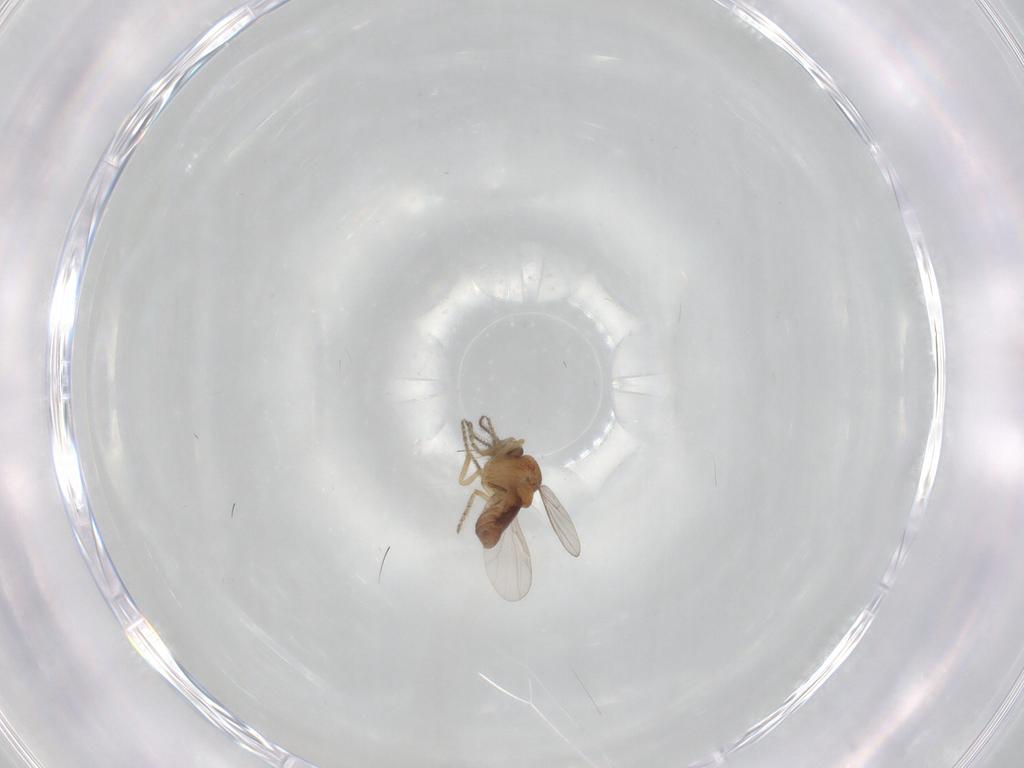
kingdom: Animalia
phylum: Arthropoda
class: Insecta
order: Diptera
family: Ceratopogonidae
